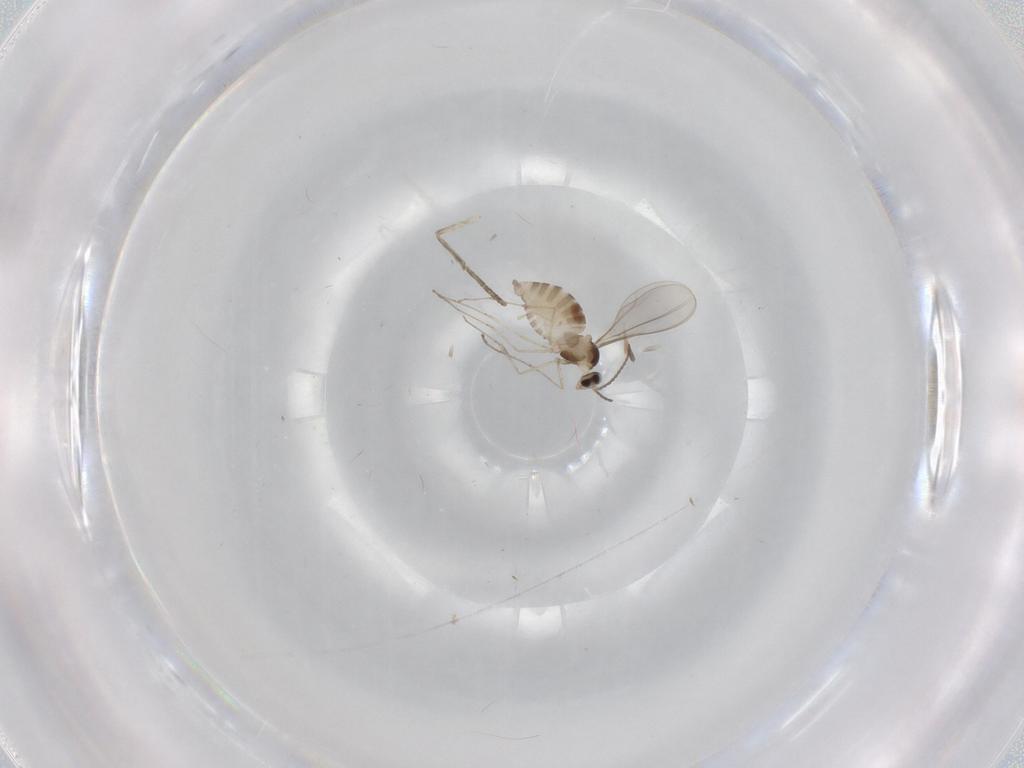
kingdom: Animalia
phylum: Arthropoda
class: Insecta
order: Diptera
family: Cecidomyiidae
